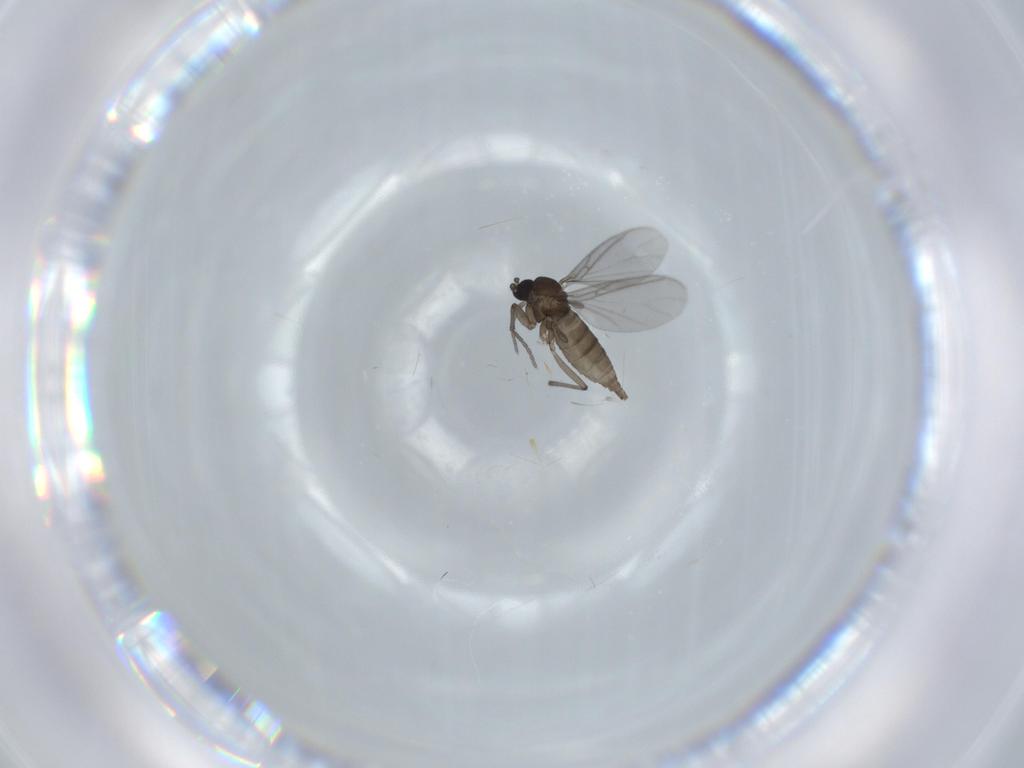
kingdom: Animalia
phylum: Arthropoda
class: Insecta
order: Diptera
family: Sciaridae
